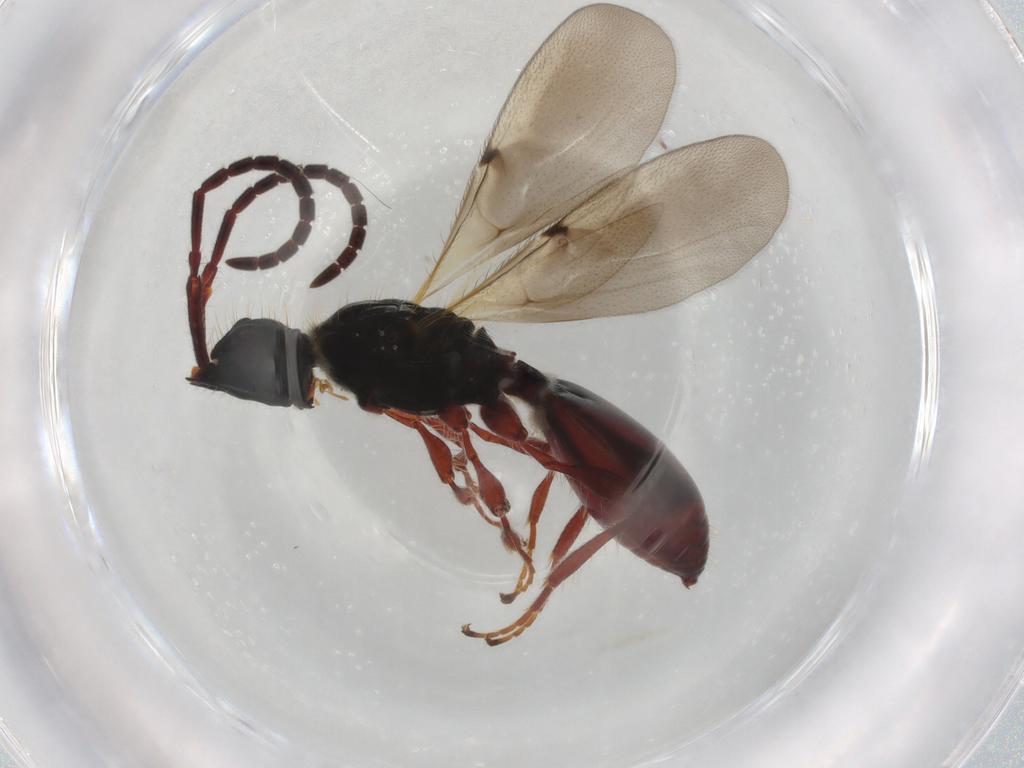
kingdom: Animalia
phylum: Arthropoda
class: Insecta
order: Hymenoptera
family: Diapriidae
